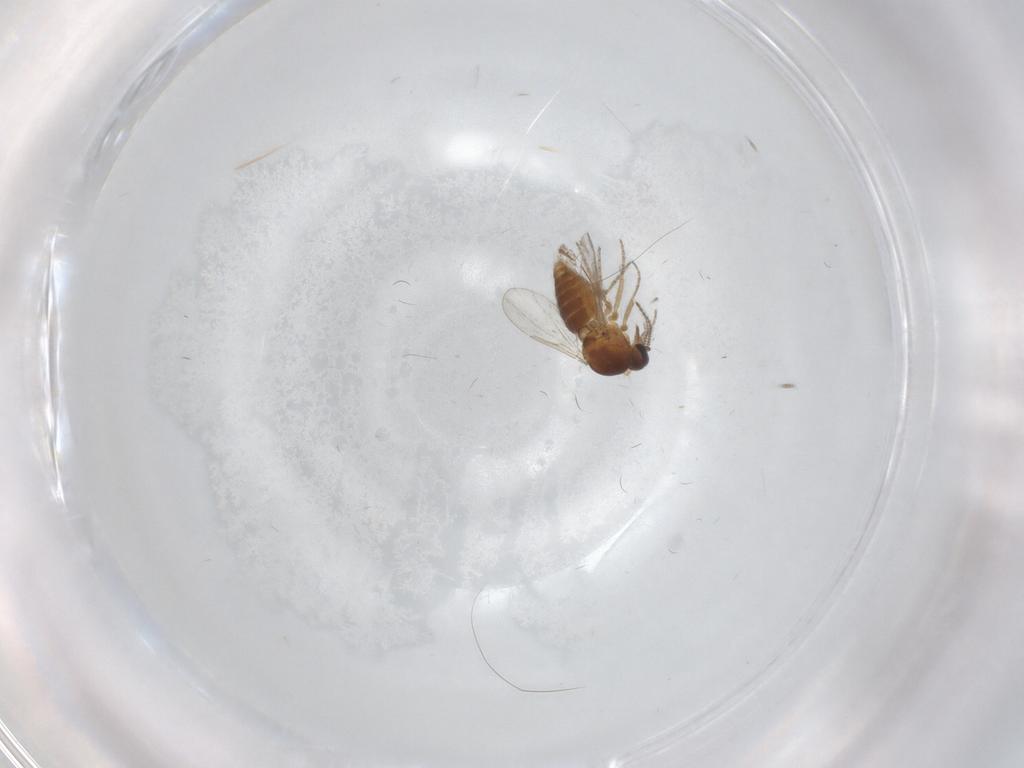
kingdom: Animalia
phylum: Arthropoda
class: Insecta
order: Diptera
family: Ceratopogonidae
